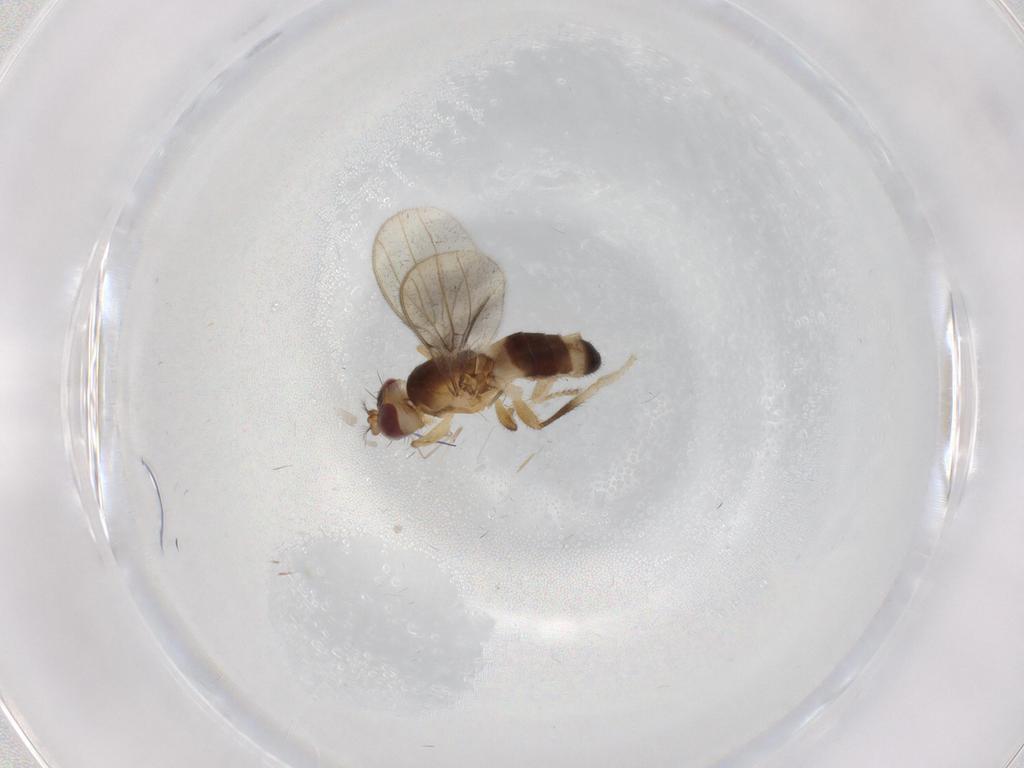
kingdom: Animalia
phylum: Arthropoda
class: Insecta
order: Diptera
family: Periscelididae
